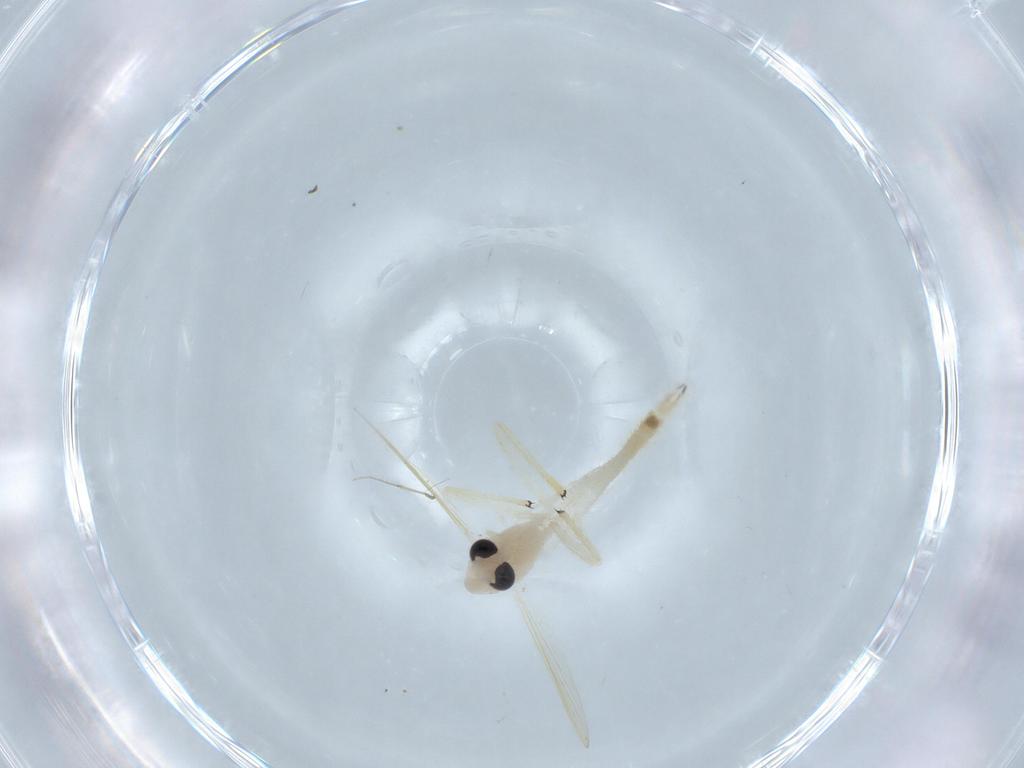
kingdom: Animalia
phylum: Arthropoda
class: Insecta
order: Diptera
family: Chironomidae
